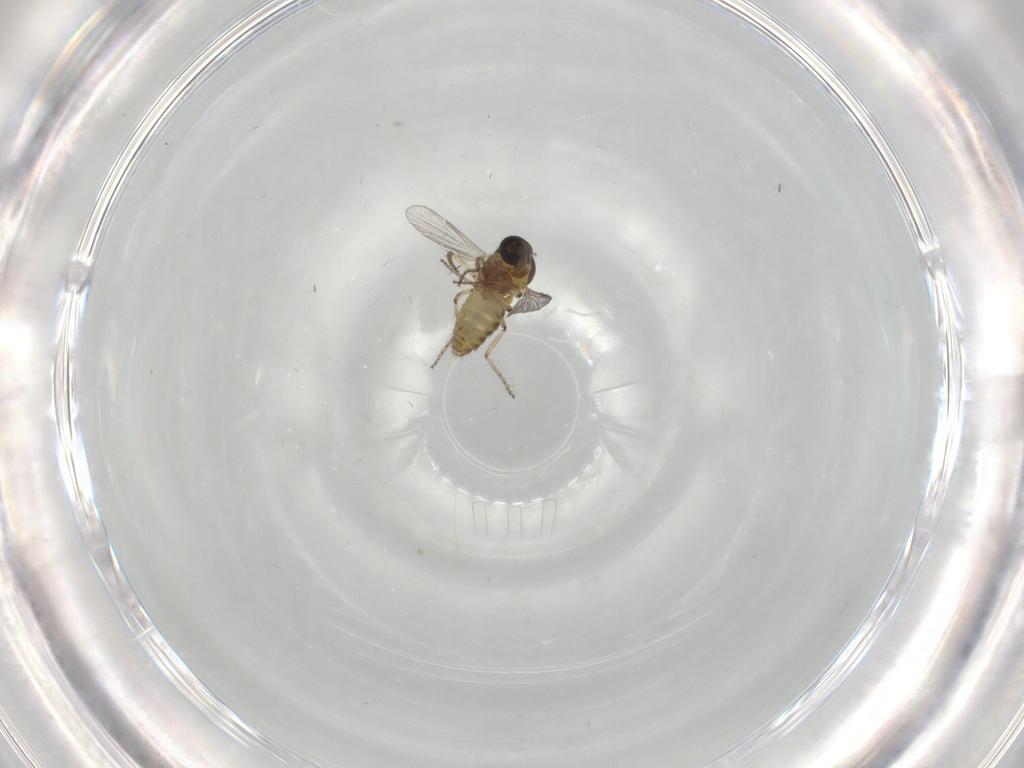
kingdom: Animalia
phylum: Arthropoda
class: Insecta
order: Diptera
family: Ceratopogonidae
